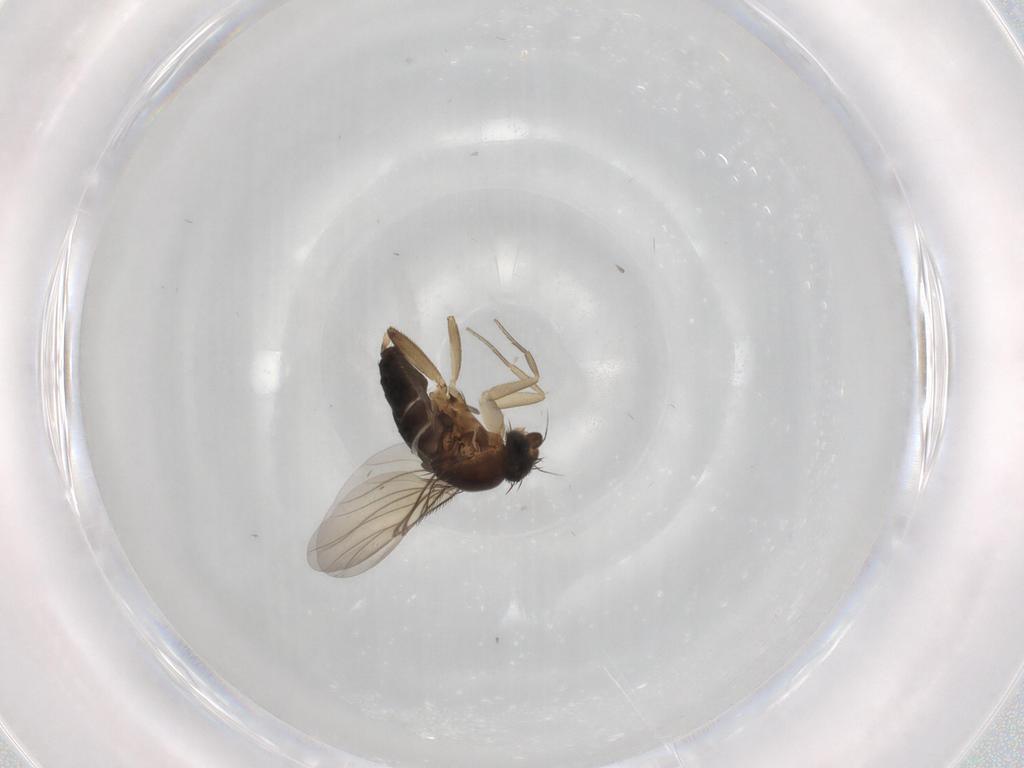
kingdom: Animalia
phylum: Arthropoda
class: Insecta
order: Diptera
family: Phoridae
